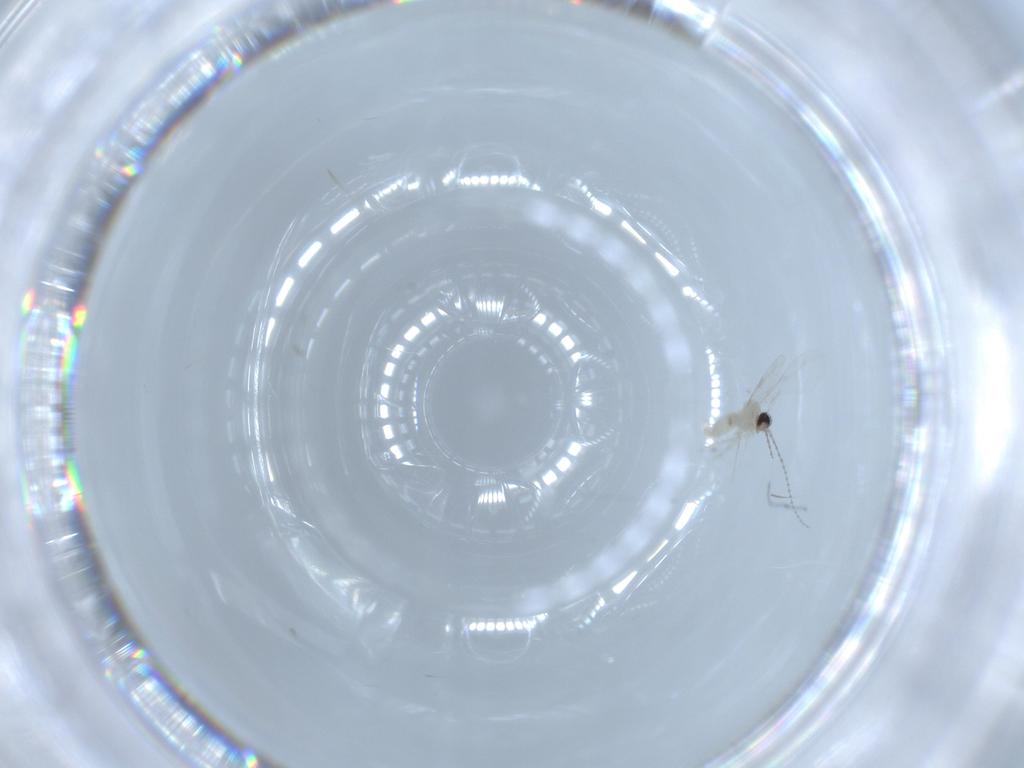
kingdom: Animalia
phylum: Arthropoda
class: Insecta
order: Diptera
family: Cecidomyiidae
